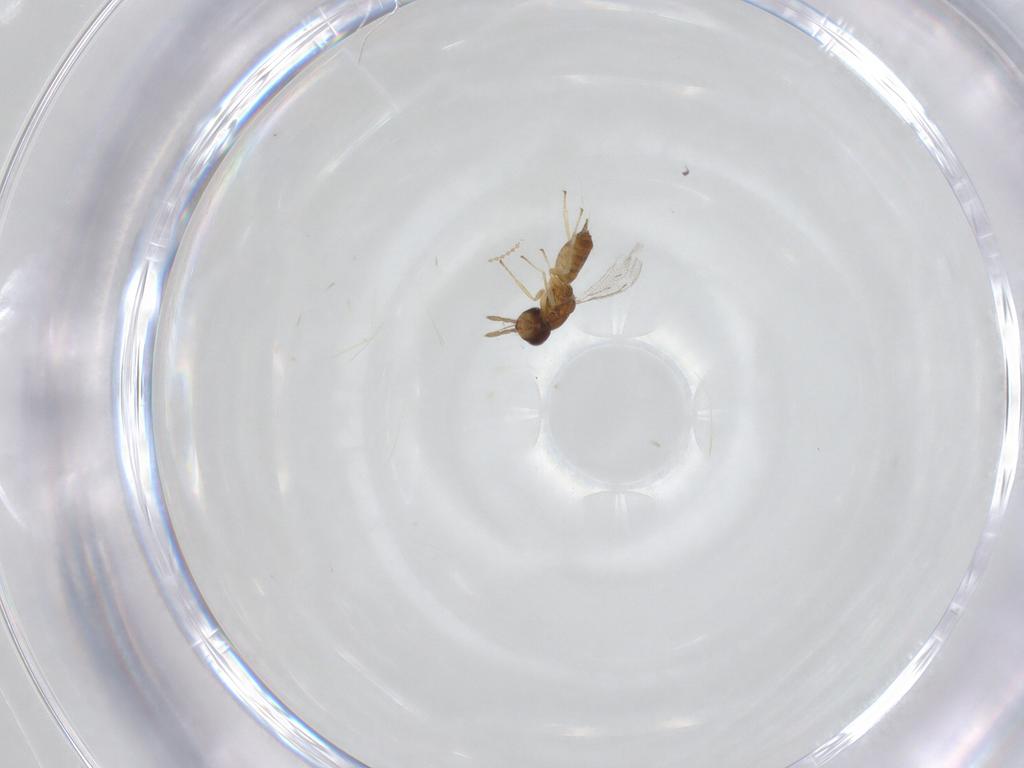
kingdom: Animalia
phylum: Arthropoda
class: Insecta
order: Hymenoptera
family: Eulophidae
